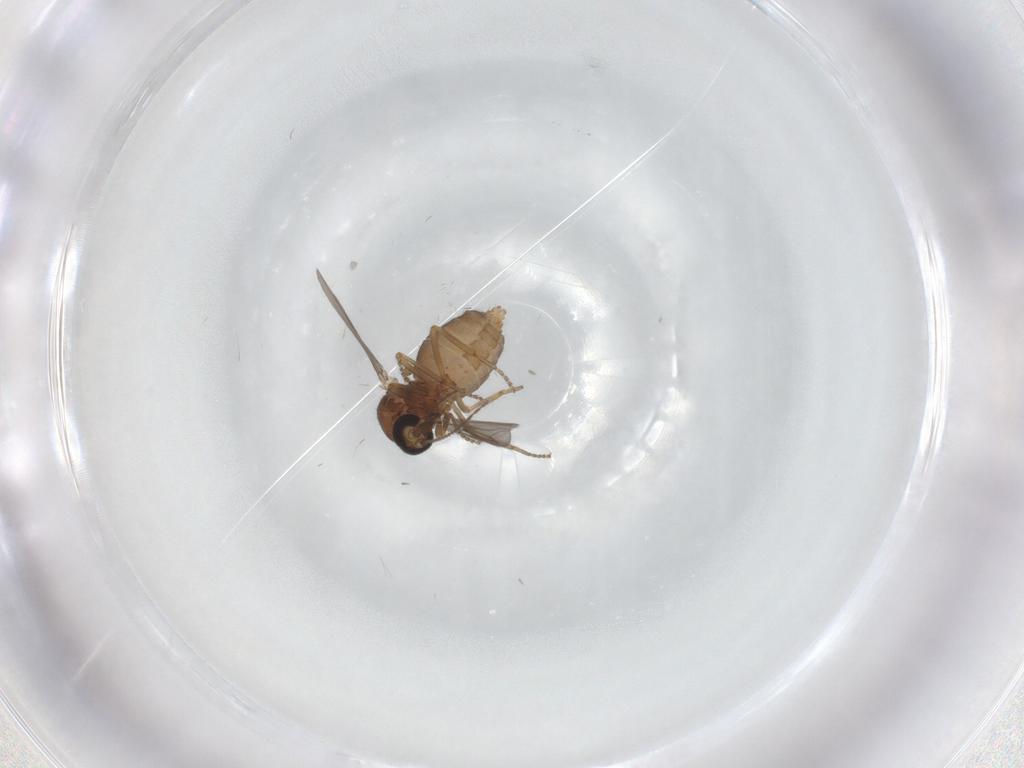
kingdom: Animalia
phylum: Arthropoda
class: Insecta
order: Diptera
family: Ceratopogonidae
